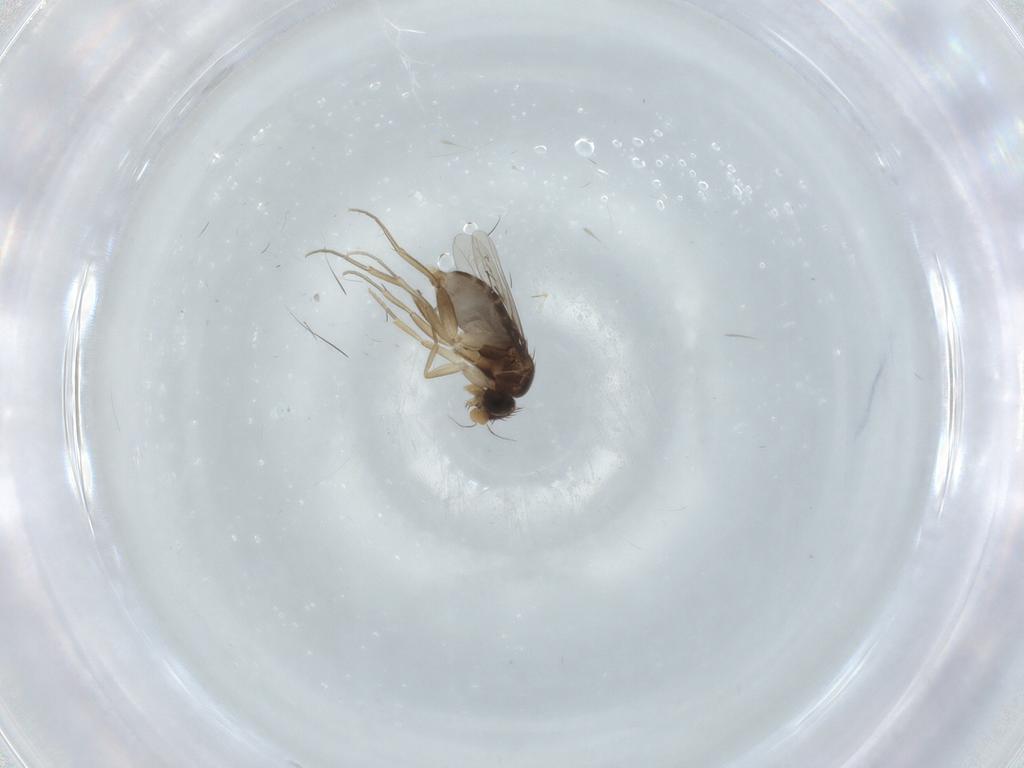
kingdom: Animalia
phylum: Arthropoda
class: Insecta
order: Diptera
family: Phoridae
